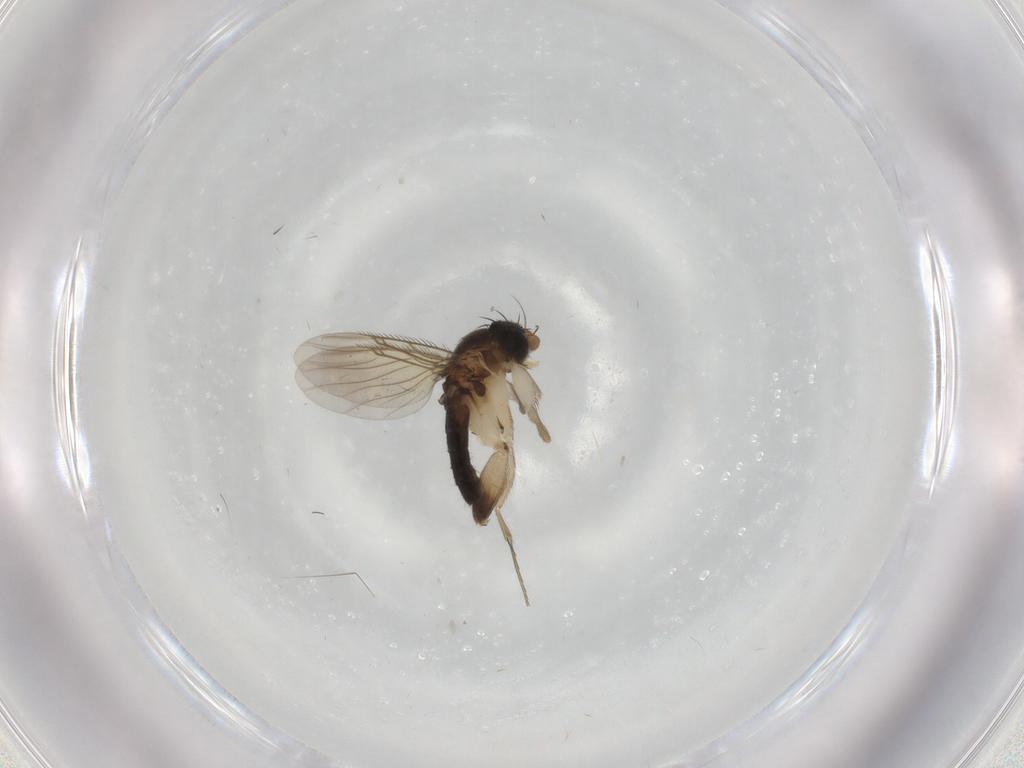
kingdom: Animalia
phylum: Arthropoda
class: Insecta
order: Diptera
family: Phoridae
